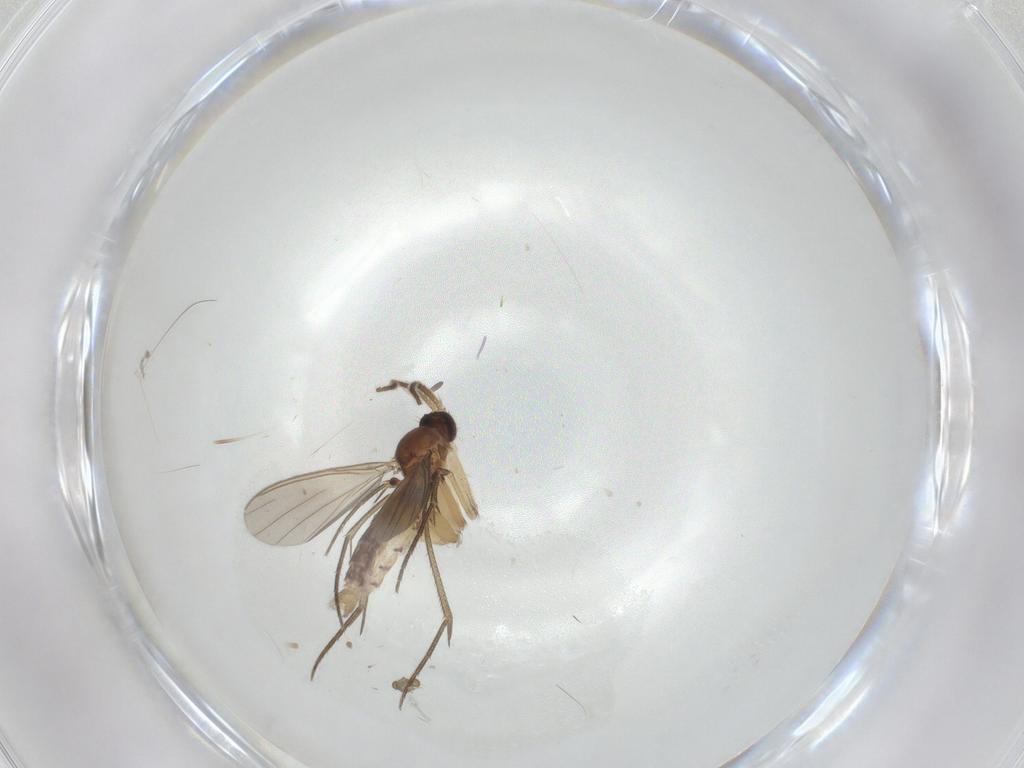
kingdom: Animalia
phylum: Arthropoda
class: Insecta
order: Diptera
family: Mycetophilidae
